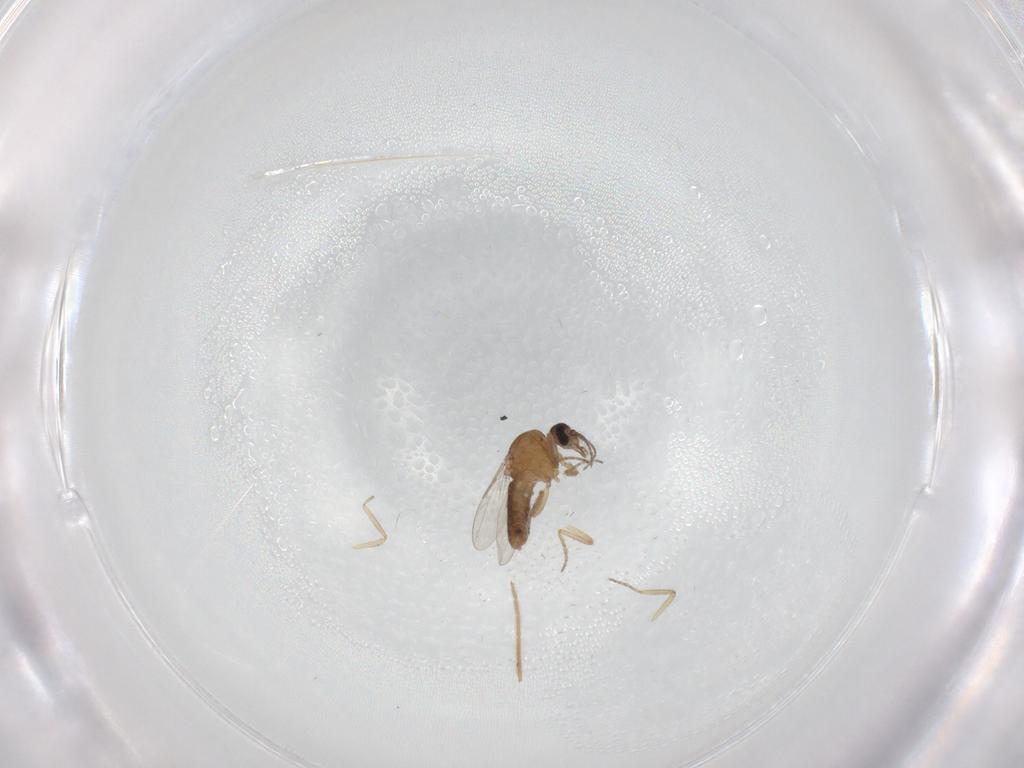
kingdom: Animalia
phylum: Arthropoda
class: Insecta
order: Diptera
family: Ceratopogonidae
